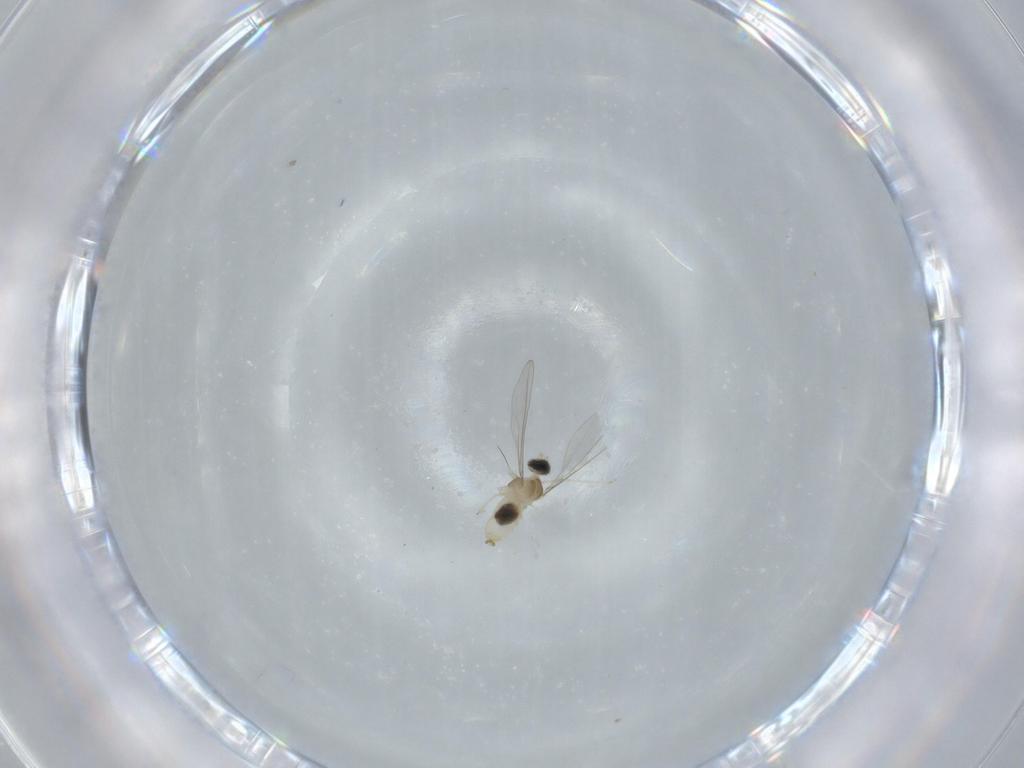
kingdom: Animalia
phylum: Arthropoda
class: Insecta
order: Diptera
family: Cecidomyiidae
